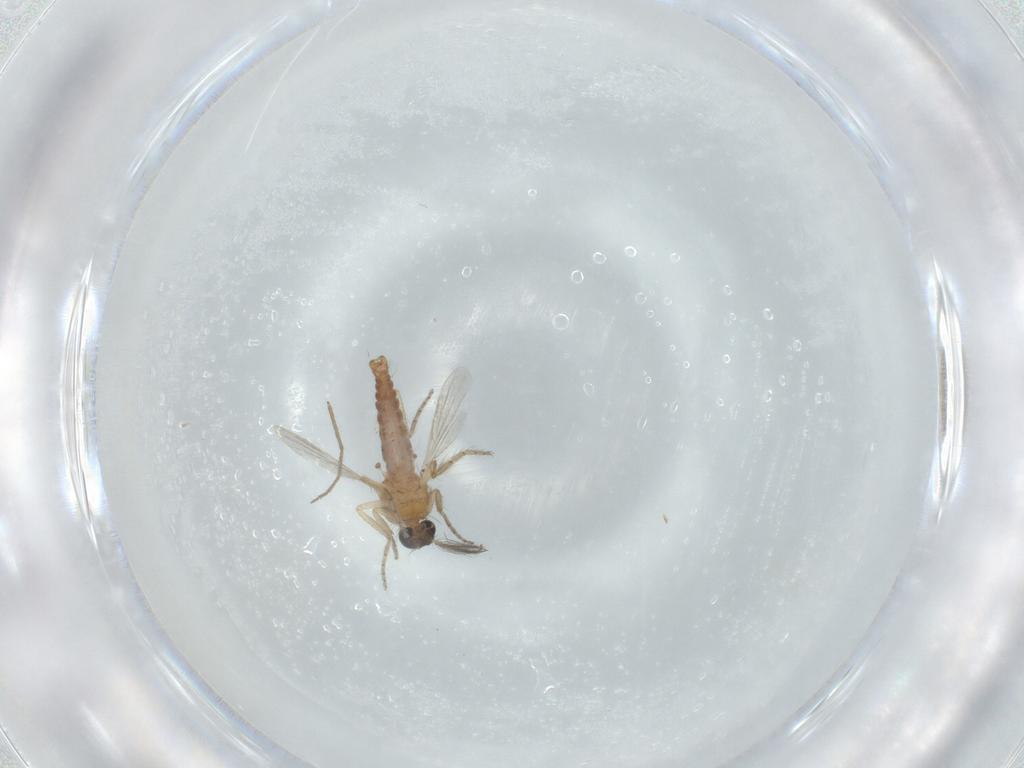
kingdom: Animalia
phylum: Arthropoda
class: Insecta
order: Diptera
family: Ceratopogonidae
